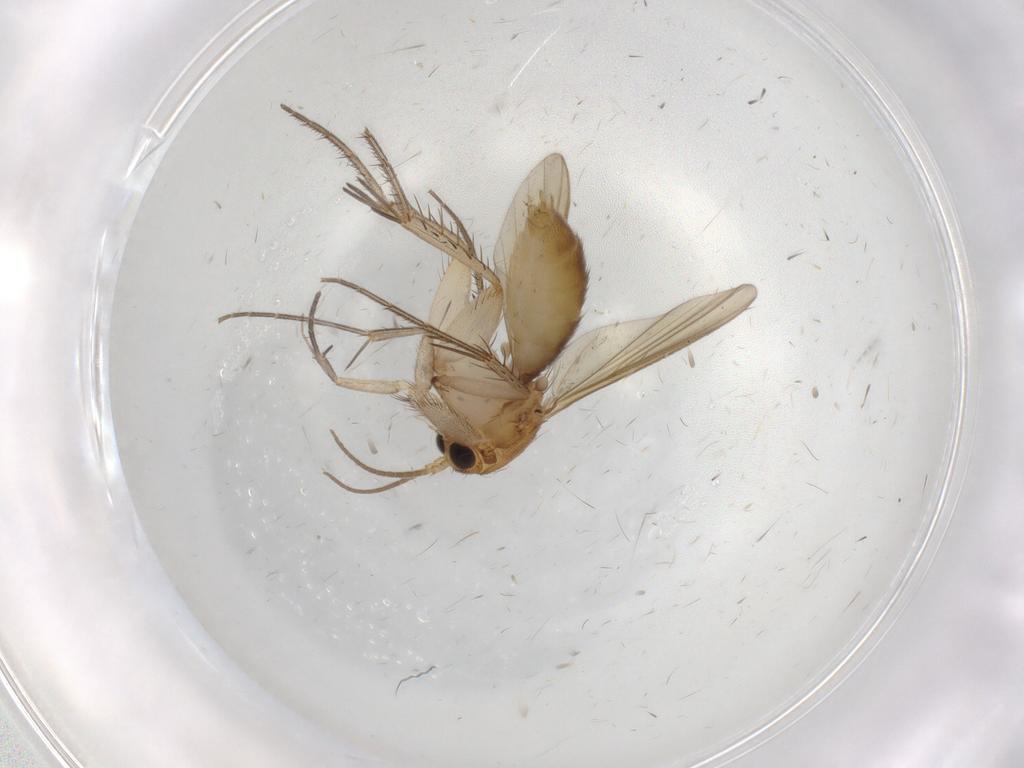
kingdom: Animalia
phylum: Arthropoda
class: Insecta
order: Diptera
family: Mycetophilidae
